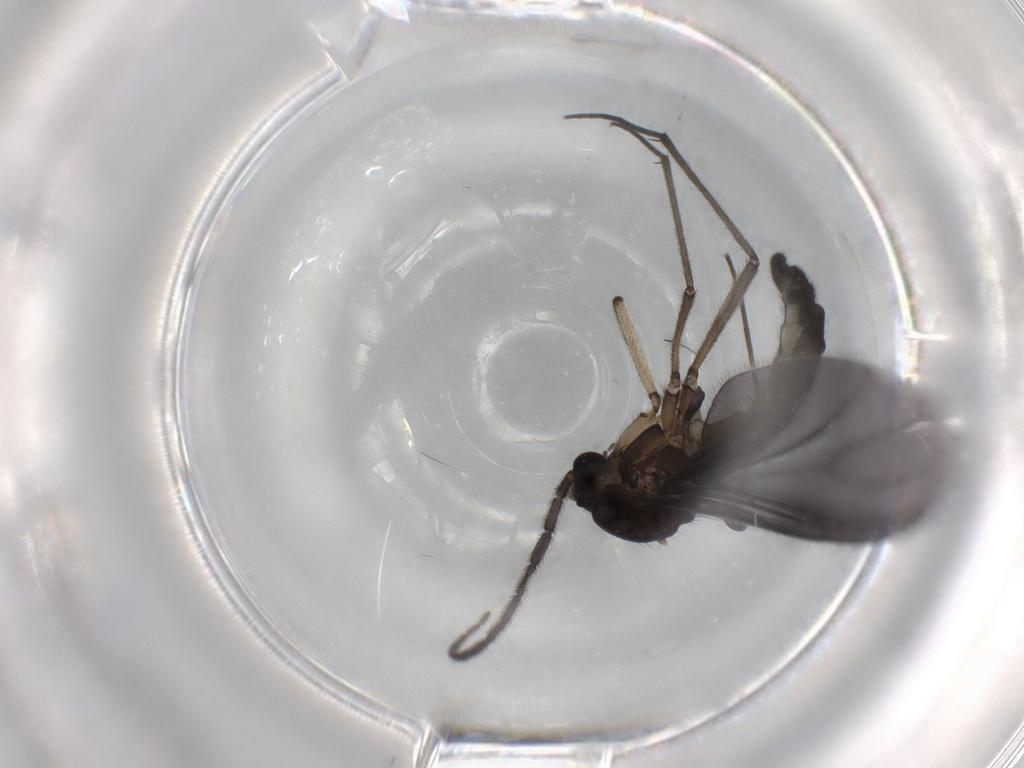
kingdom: Animalia
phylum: Arthropoda
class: Insecta
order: Diptera
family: Sciaridae
